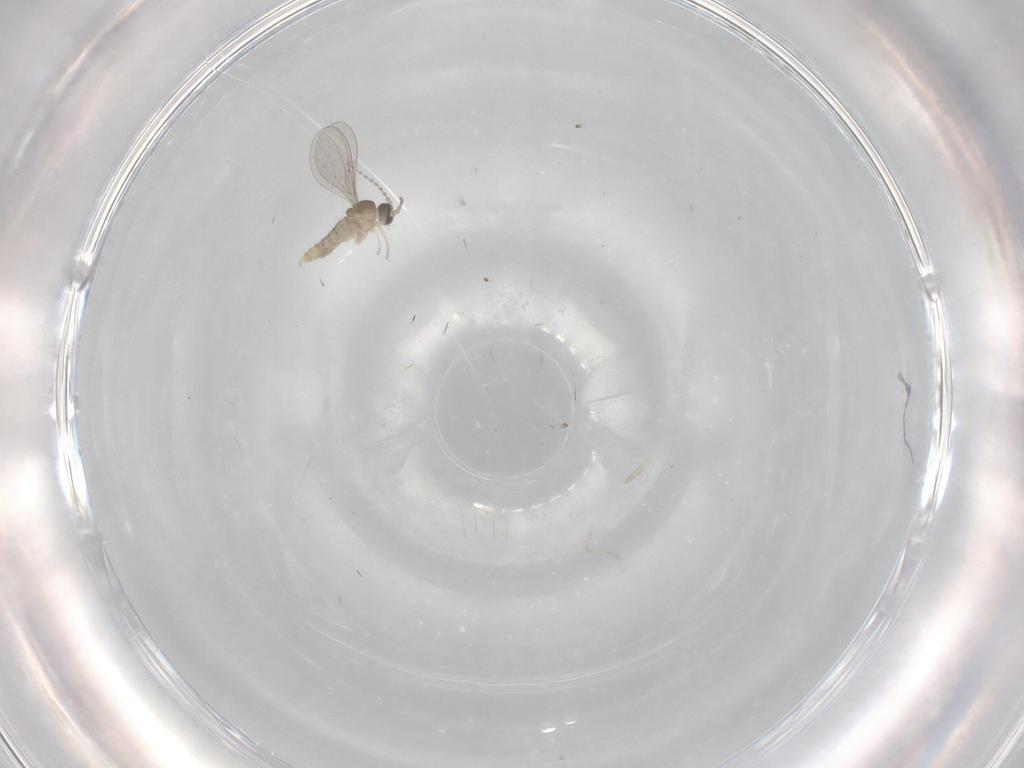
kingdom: Animalia
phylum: Arthropoda
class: Insecta
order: Diptera
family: Cecidomyiidae
